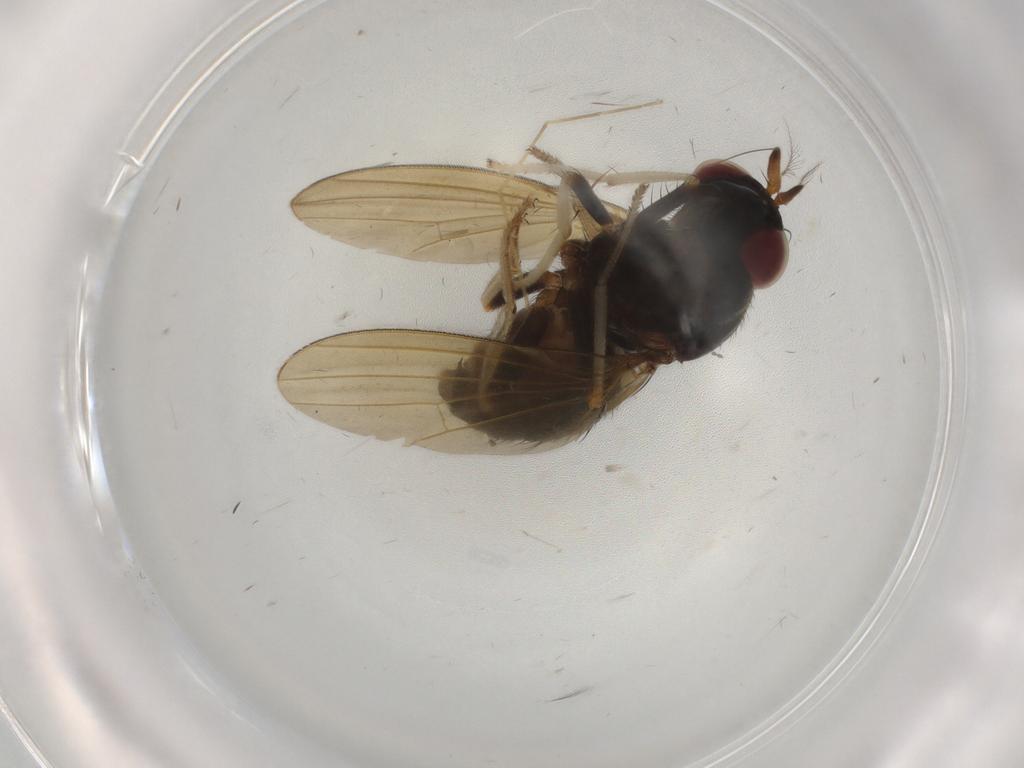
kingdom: Animalia
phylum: Arthropoda
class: Insecta
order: Diptera
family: Lauxaniidae
